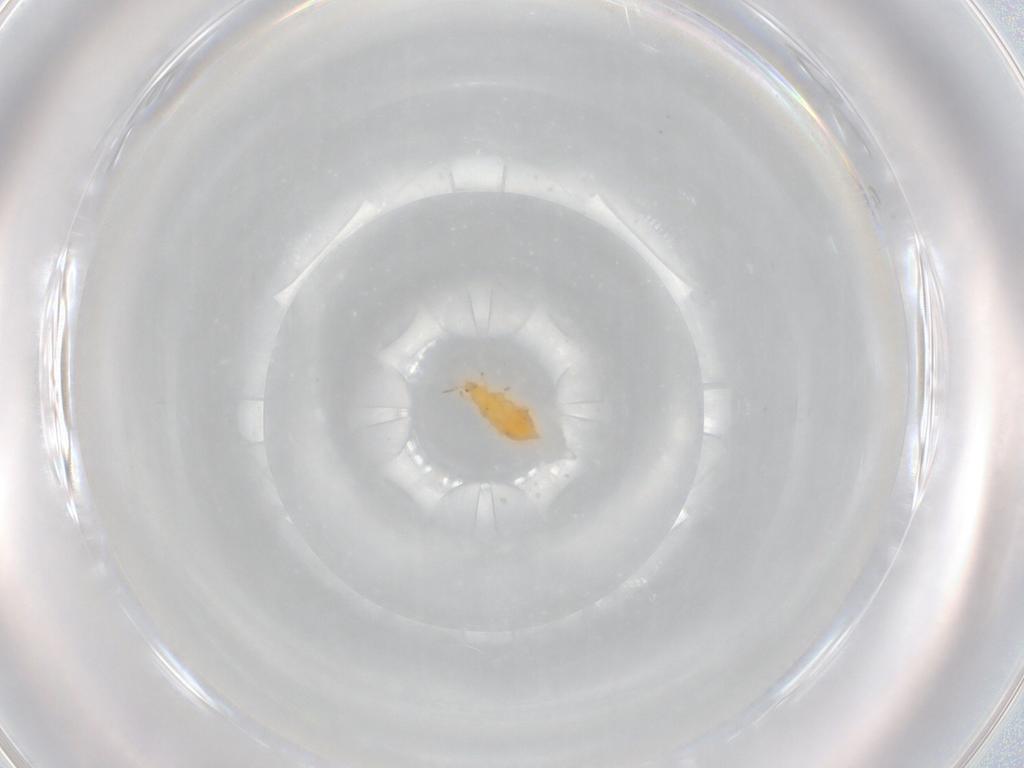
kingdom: Animalia
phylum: Arthropoda
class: Insecta
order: Thysanoptera
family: Heterothripidae
